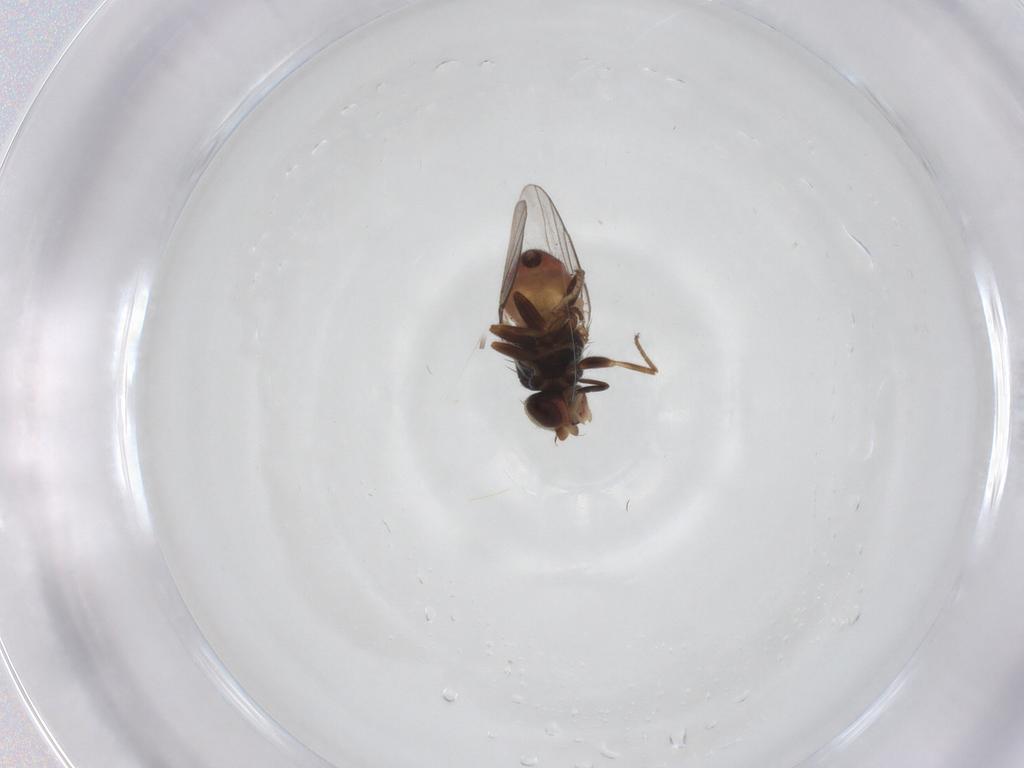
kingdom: Animalia
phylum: Arthropoda
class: Insecta
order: Diptera
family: Chloropidae
